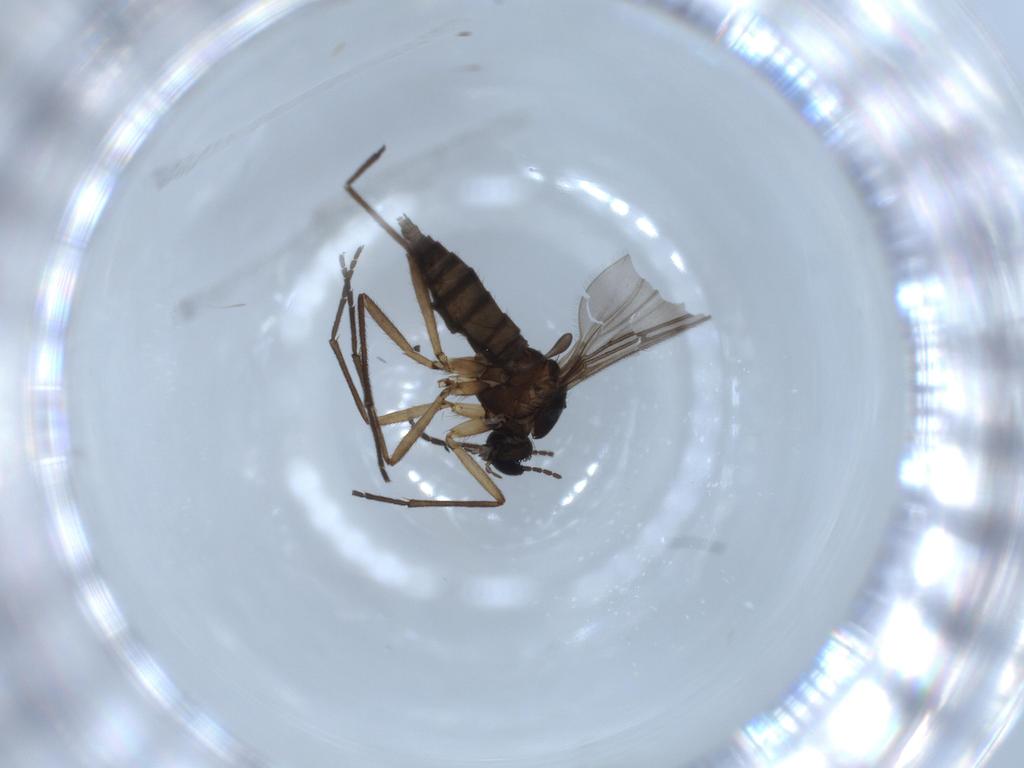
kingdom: Animalia
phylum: Arthropoda
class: Insecta
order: Diptera
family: Sciaridae
